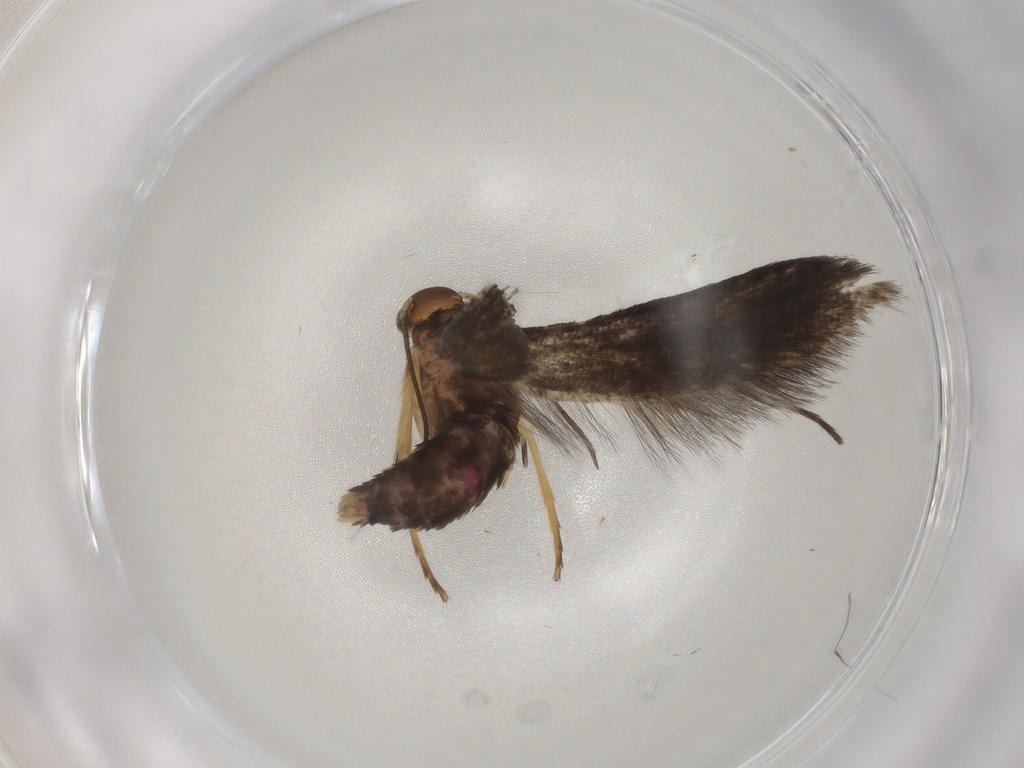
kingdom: Animalia
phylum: Arthropoda
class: Insecta
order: Lepidoptera
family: Oecophoridae
